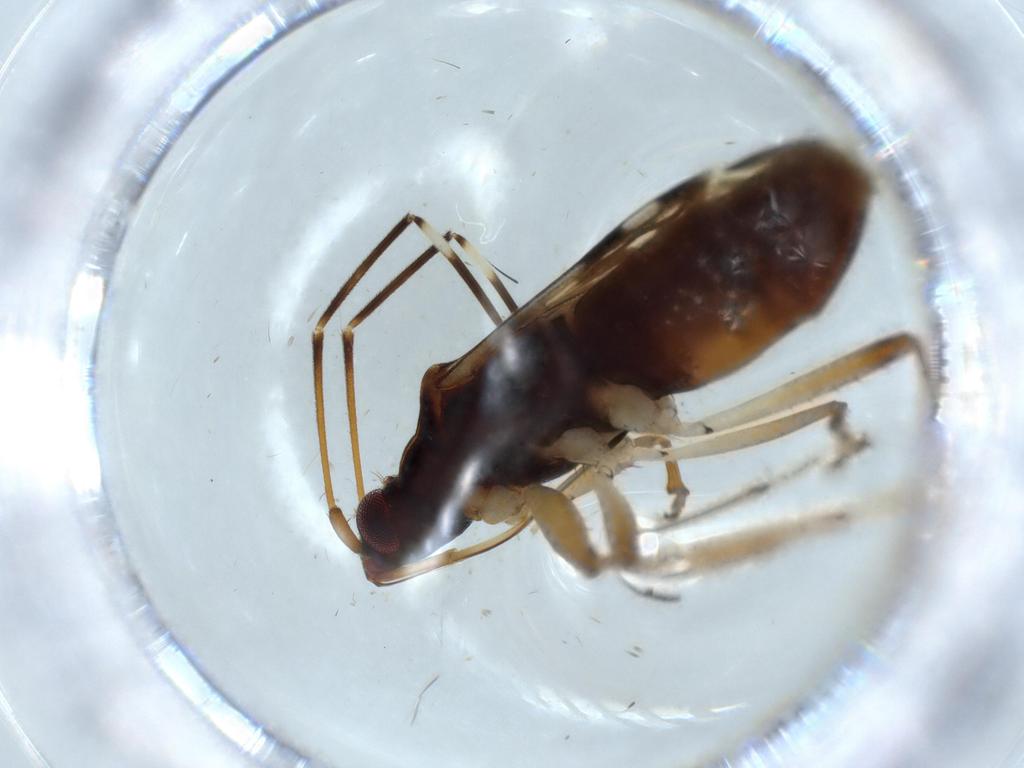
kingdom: Animalia
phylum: Arthropoda
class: Insecta
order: Hemiptera
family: Rhyparochromidae
